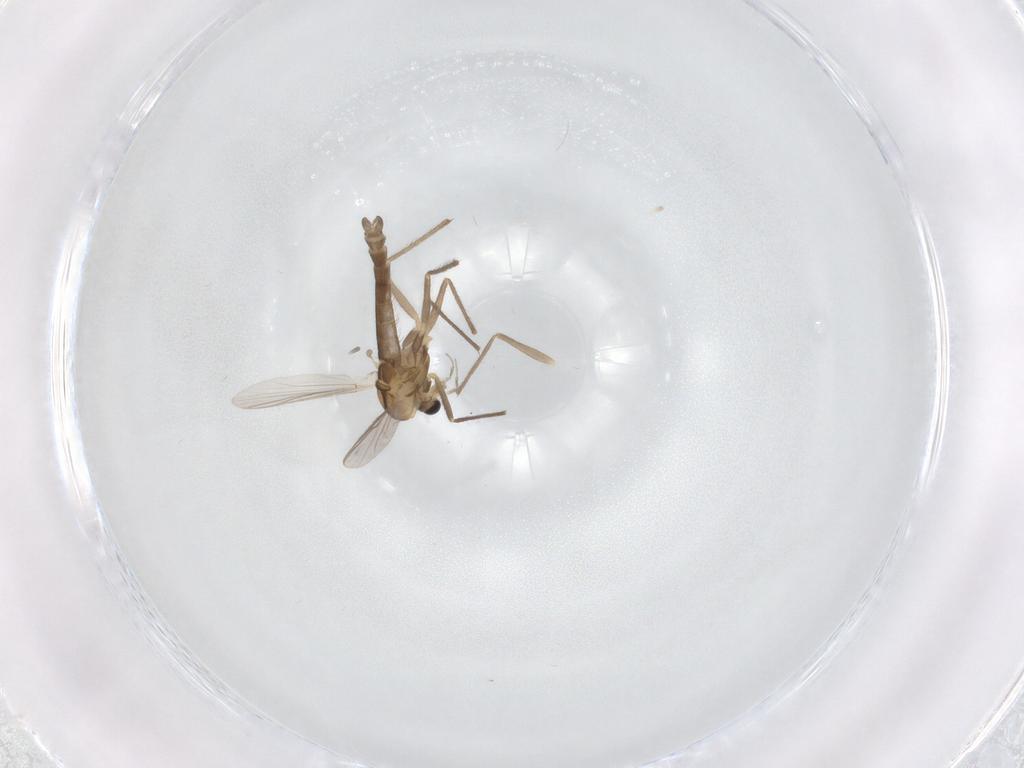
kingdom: Animalia
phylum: Arthropoda
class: Insecta
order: Diptera
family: Chironomidae
